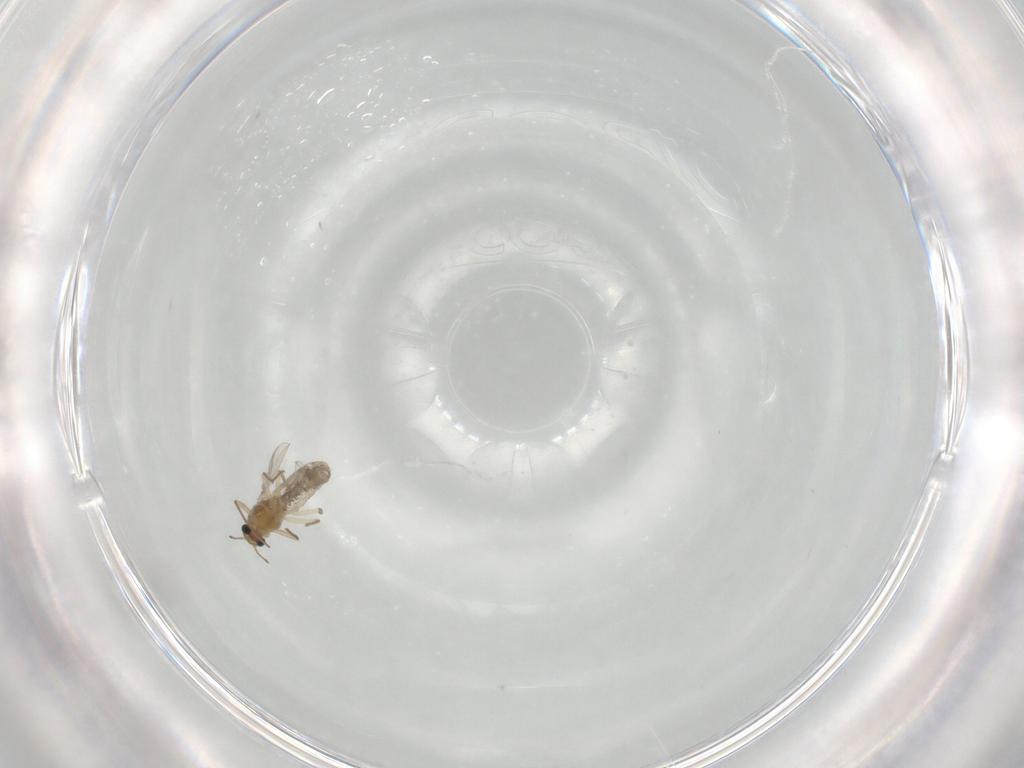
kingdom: Animalia
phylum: Arthropoda
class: Insecta
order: Diptera
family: Chironomidae
